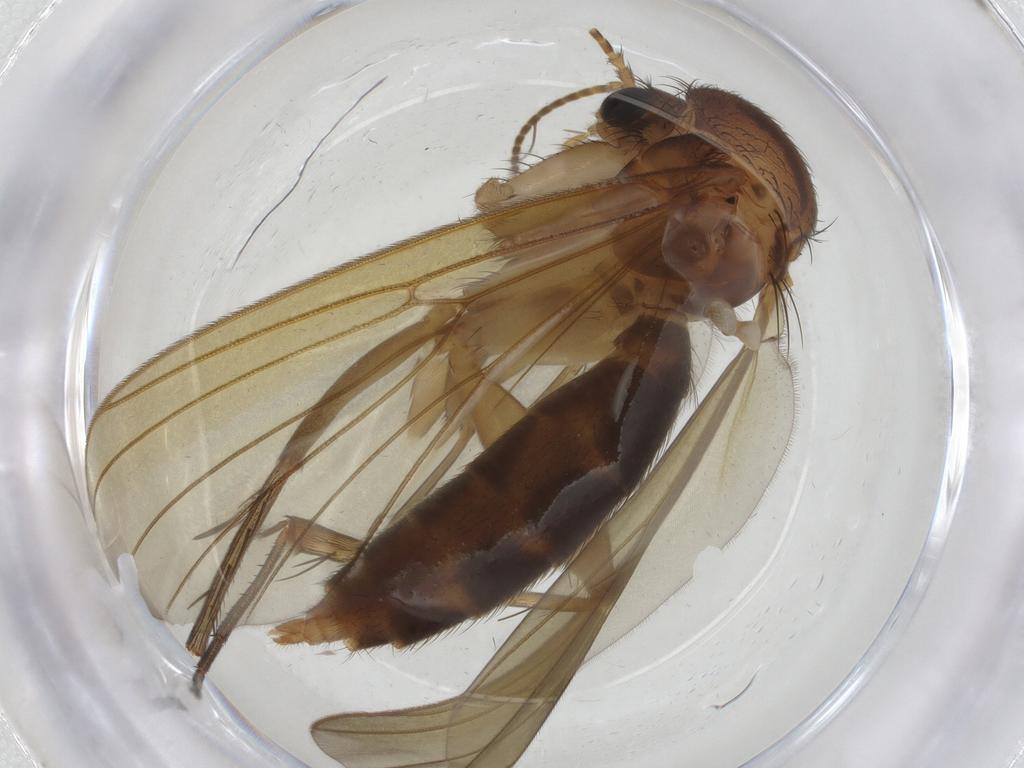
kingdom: Animalia
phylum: Arthropoda
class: Insecta
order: Diptera
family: Mycetophilidae
